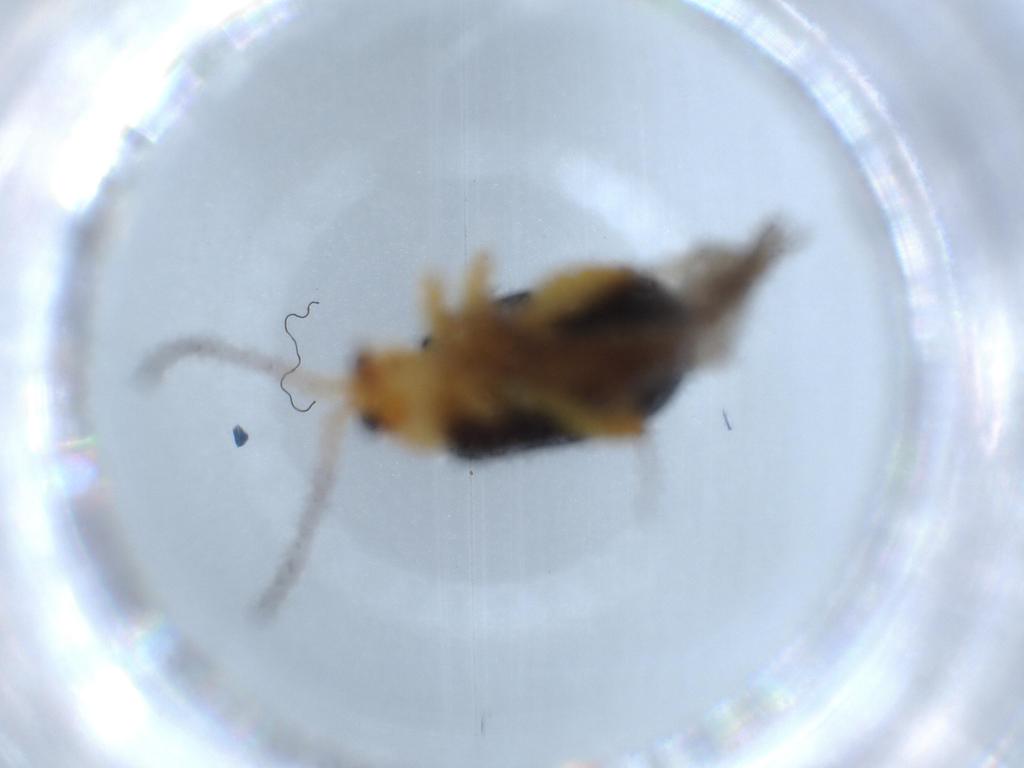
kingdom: Animalia
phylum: Arthropoda
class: Insecta
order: Coleoptera
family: Chrysomelidae
